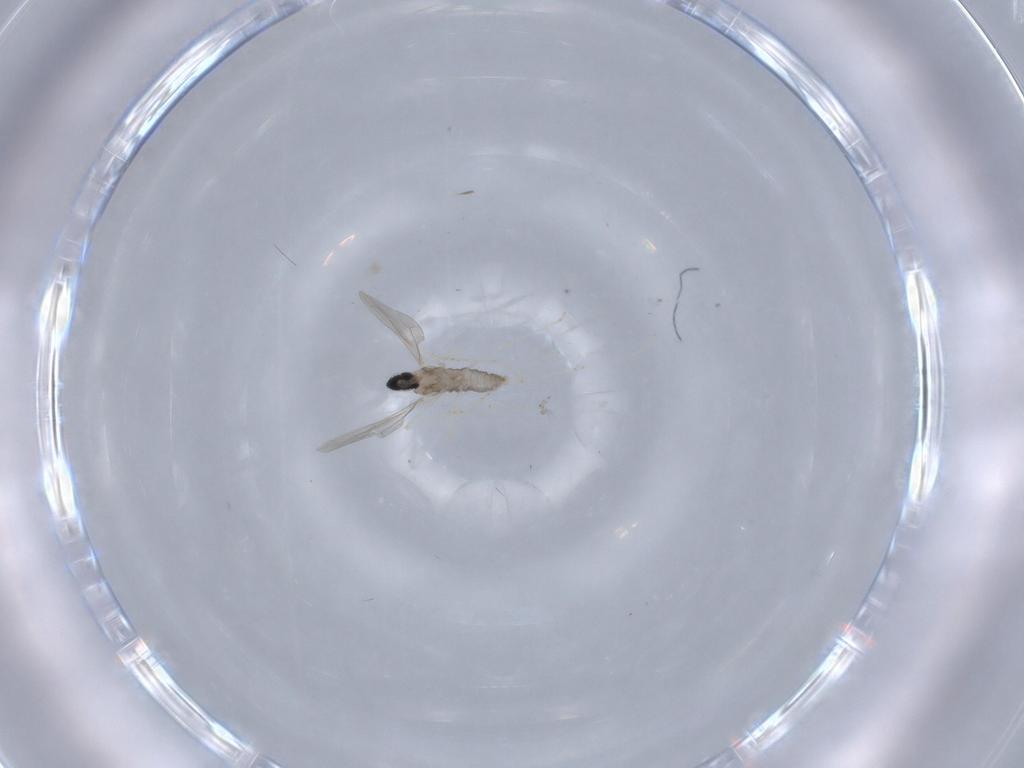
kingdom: Animalia
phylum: Arthropoda
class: Insecta
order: Diptera
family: Cecidomyiidae
